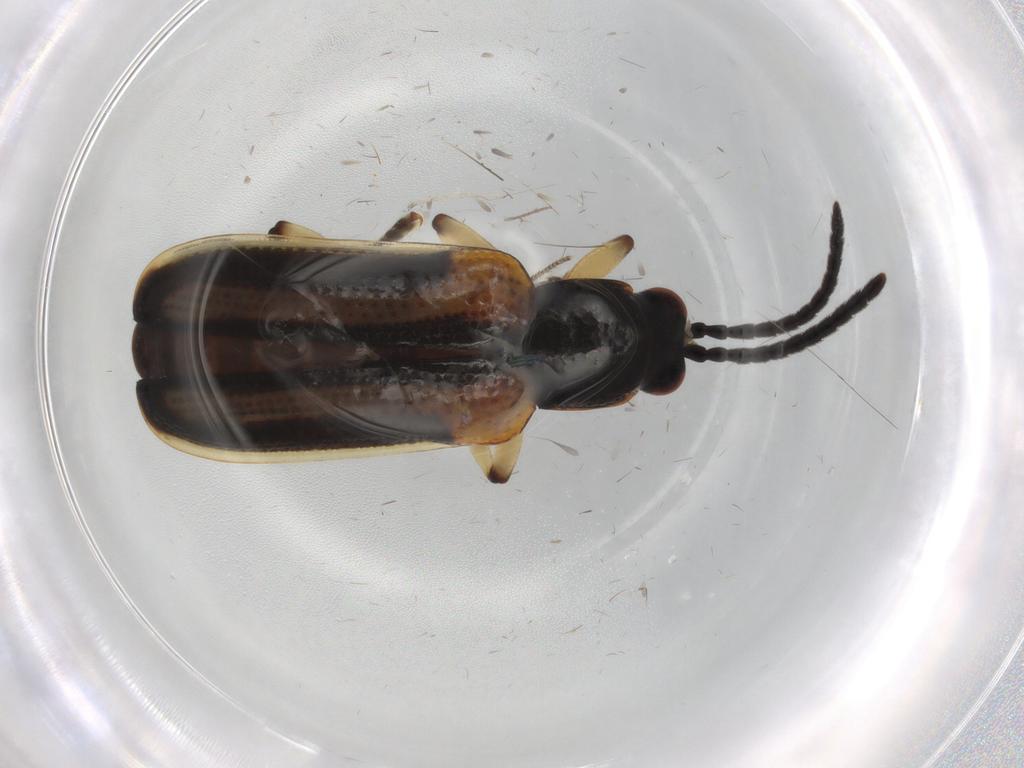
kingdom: Animalia
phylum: Arthropoda
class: Insecta
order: Coleoptera
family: Chrysomelidae
